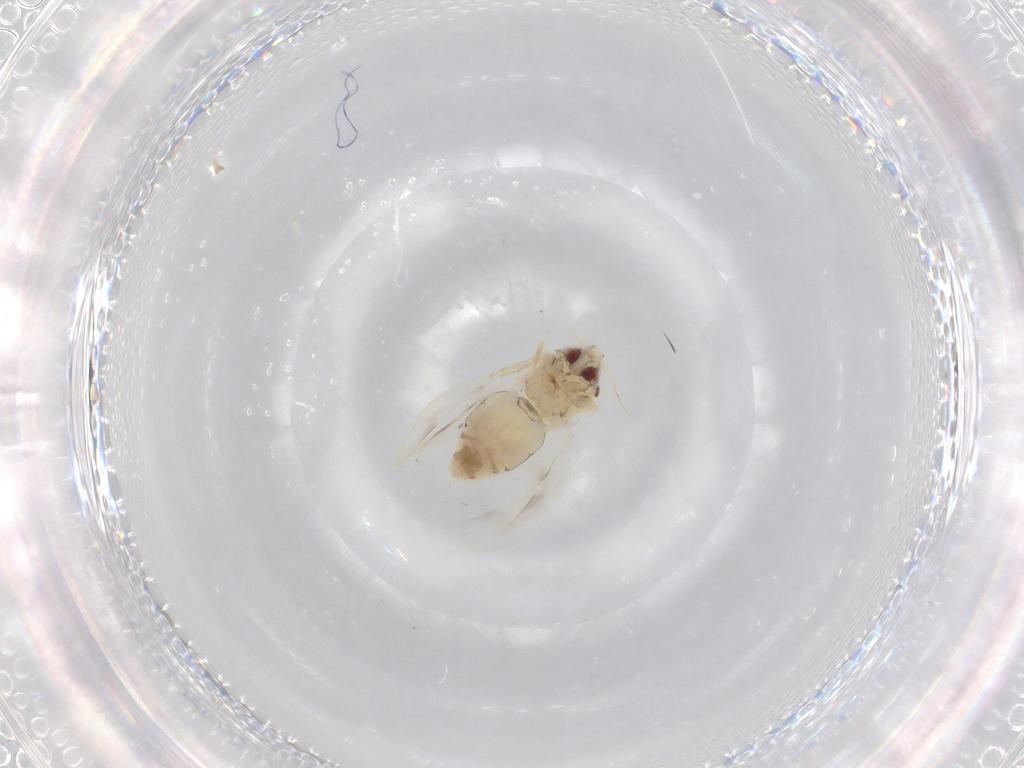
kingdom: Animalia
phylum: Arthropoda
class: Insecta
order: Hemiptera
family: Aleyrodidae
